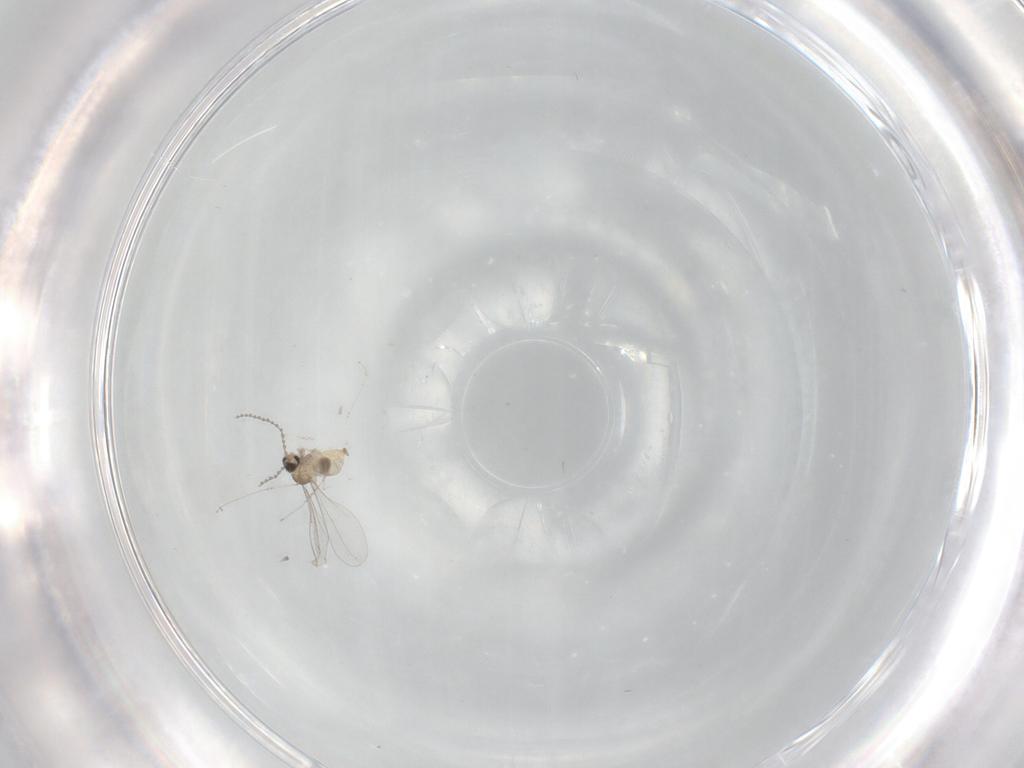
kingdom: Animalia
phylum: Arthropoda
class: Insecta
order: Diptera
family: Cecidomyiidae
